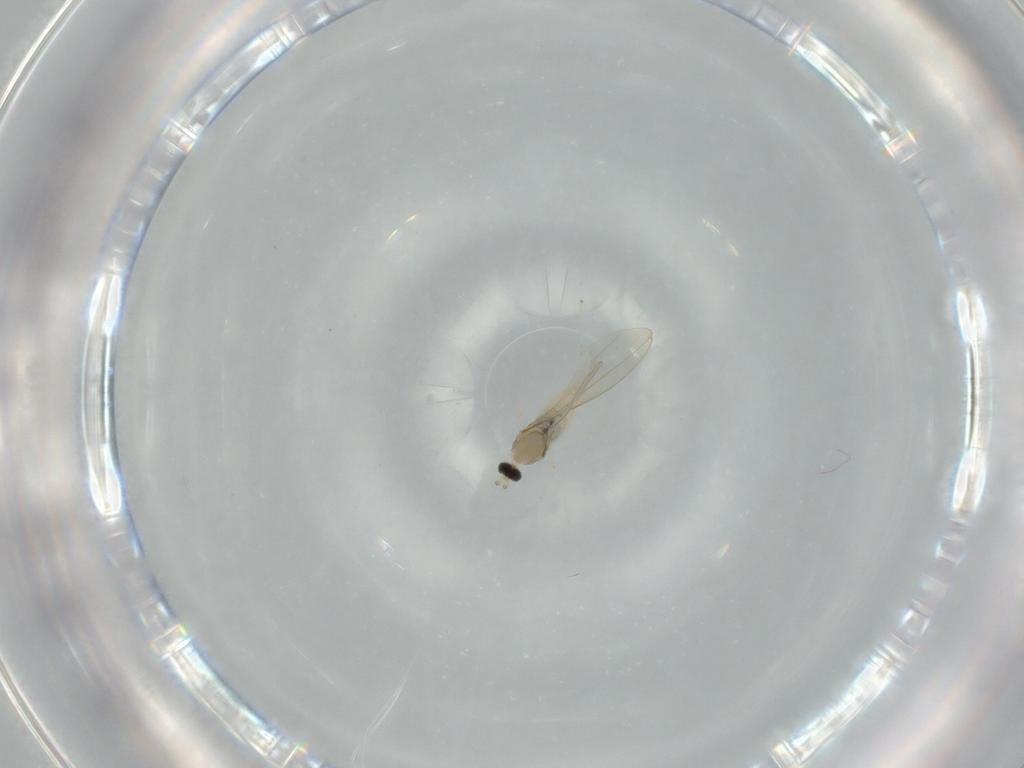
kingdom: Animalia
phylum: Arthropoda
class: Insecta
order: Diptera
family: Cecidomyiidae
